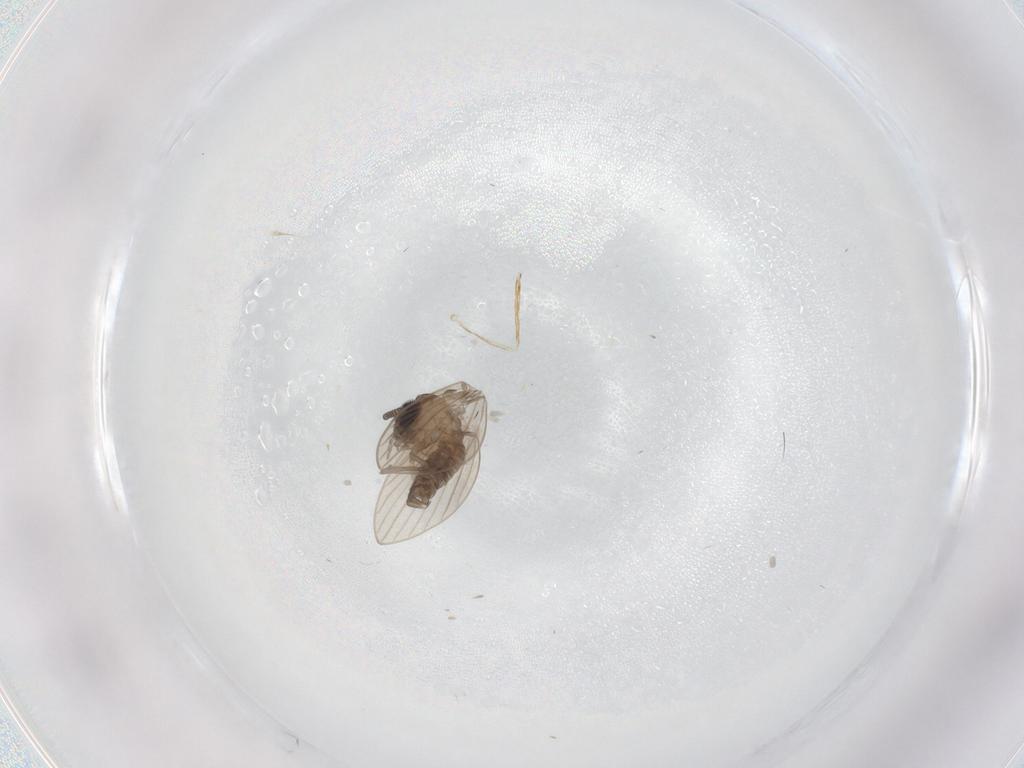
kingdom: Animalia
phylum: Arthropoda
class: Insecta
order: Diptera
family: Psychodidae
